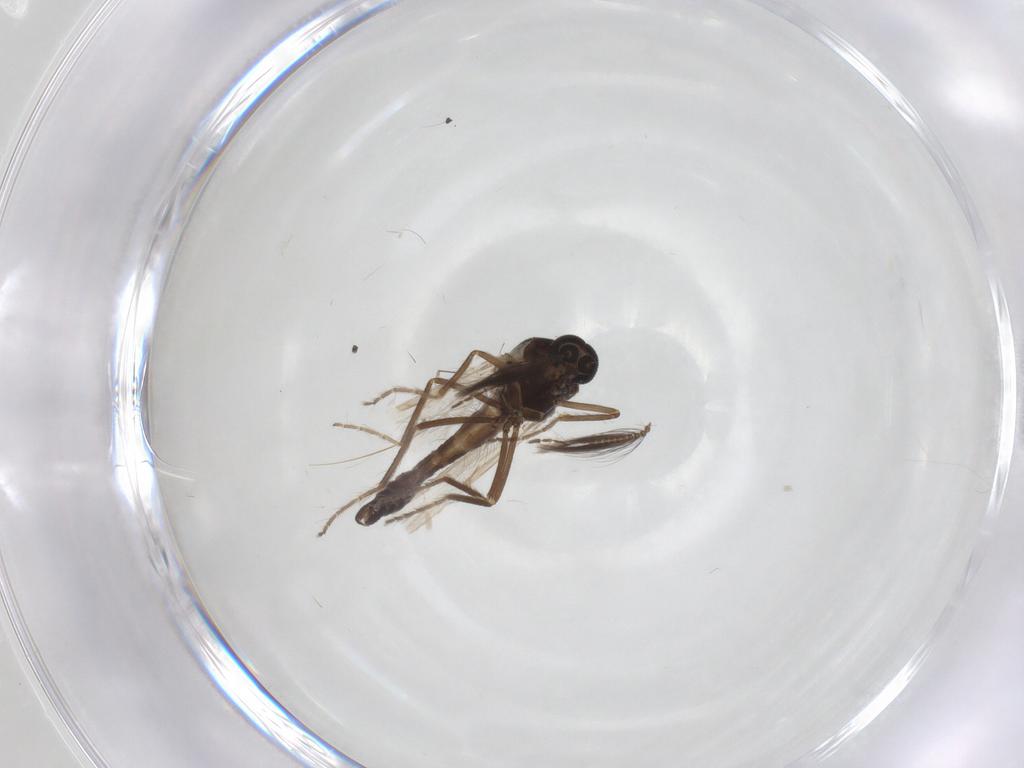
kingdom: Animalia
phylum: Arthropoda
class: Insecta
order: Diptera
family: Ceratopogonidae
